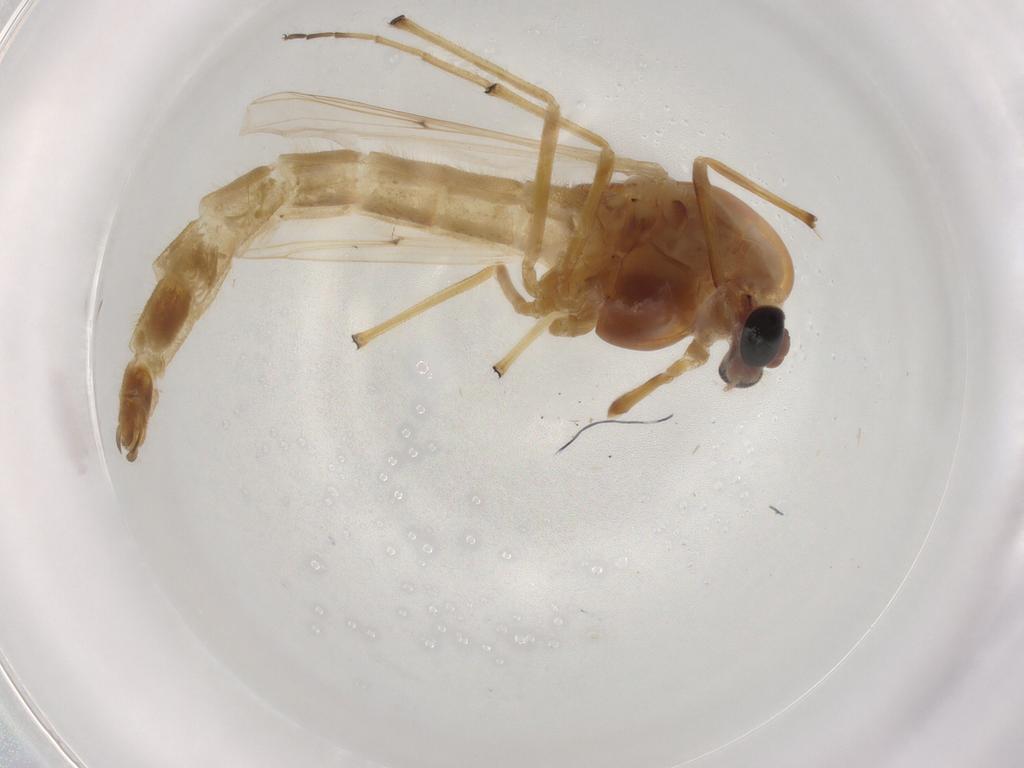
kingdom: Animalia
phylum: Arthropoda
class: Insecta
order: Diptera
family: Chironomidae
